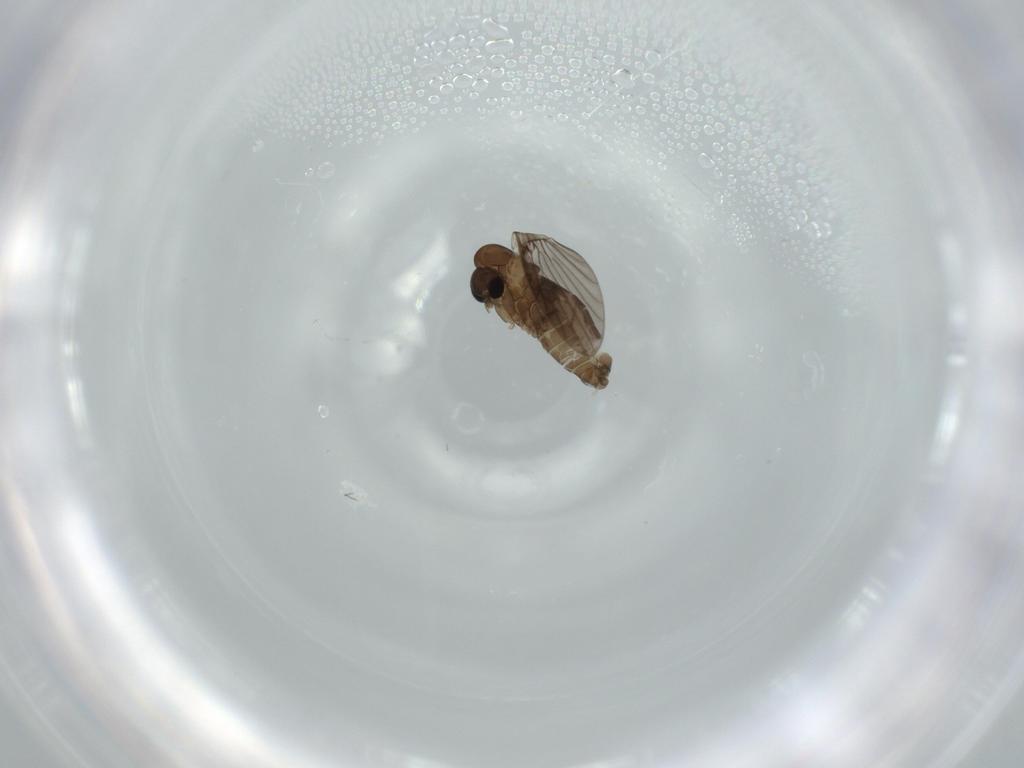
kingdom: Animalia
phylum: Arthropoda
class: Insecta
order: Diptera
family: Psychodidae
